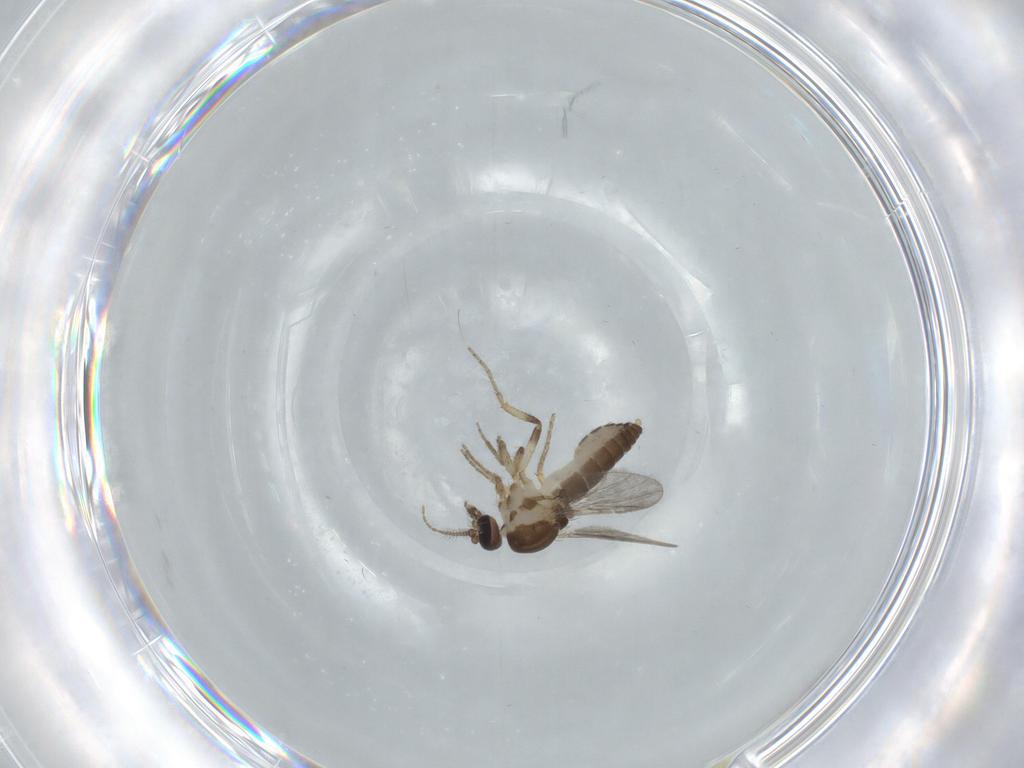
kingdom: Animalia
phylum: Arthropoda
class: Insecta
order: Diptera
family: Ceratopogonidae
